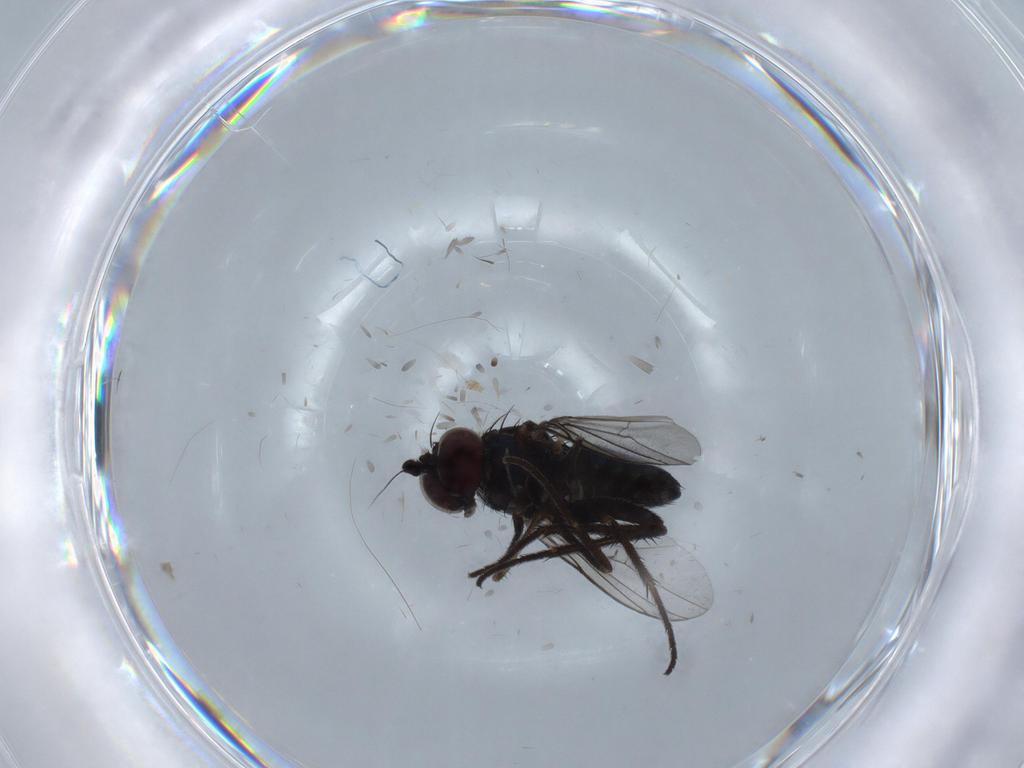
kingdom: Animalia
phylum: Arthropoda
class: Insecta
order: Diptera
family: Dolichopodidae
